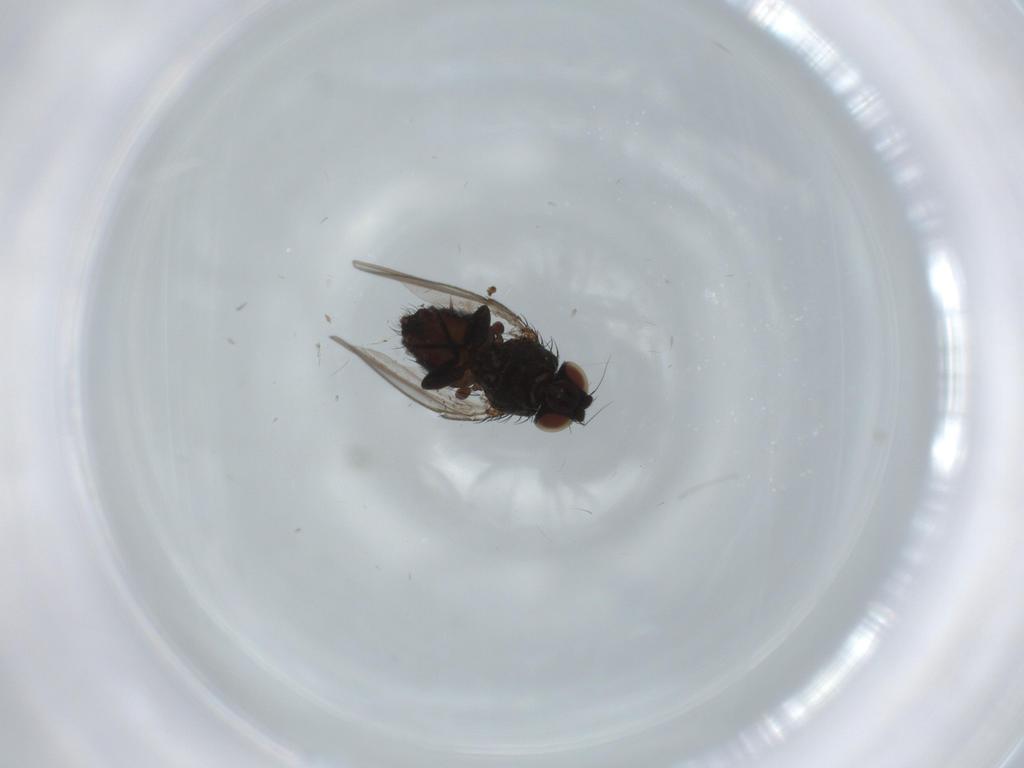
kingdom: Animalia
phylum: Arthropoda
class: Insecta
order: Diptera
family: Milichiidae
